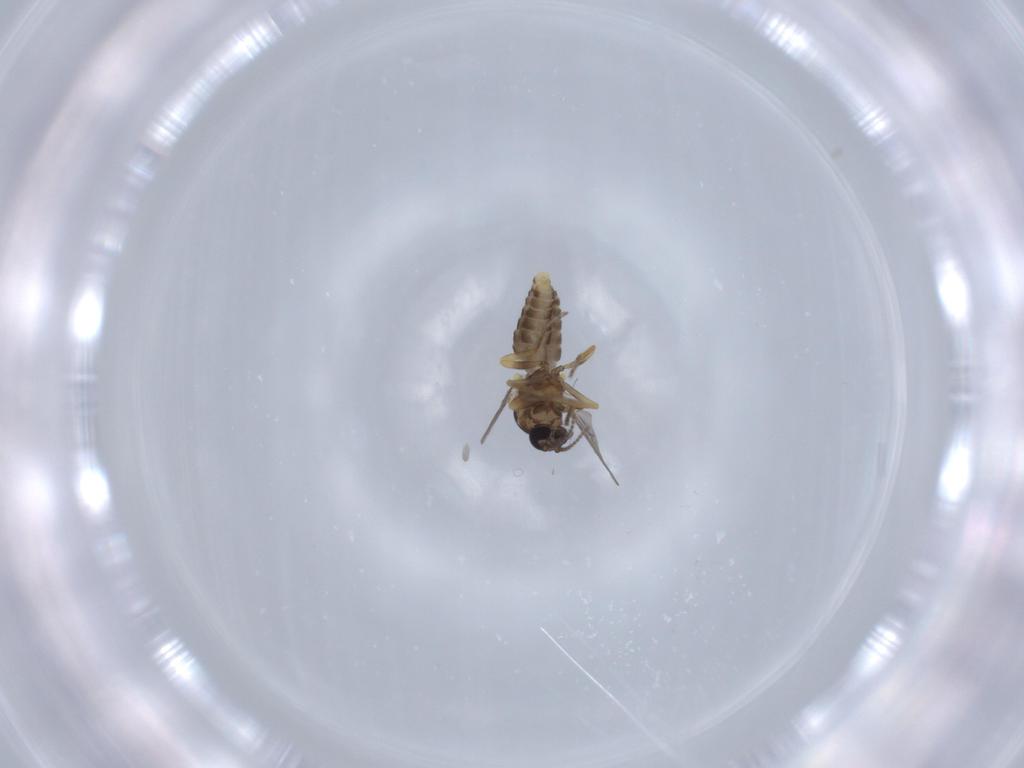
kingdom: Animalia
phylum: Arthropoda
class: Insecta
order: Diptera
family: Ceratopogonidae
